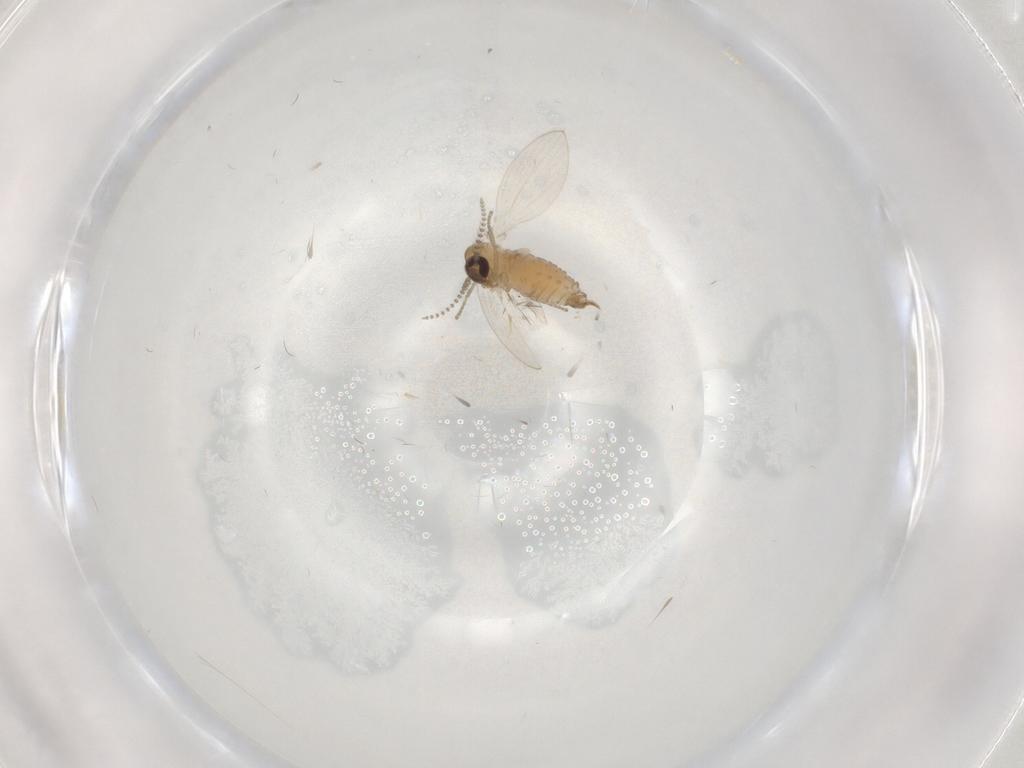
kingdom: Animalia
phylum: Arthropoda
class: Insecta
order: Diptera
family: Psychodidae
